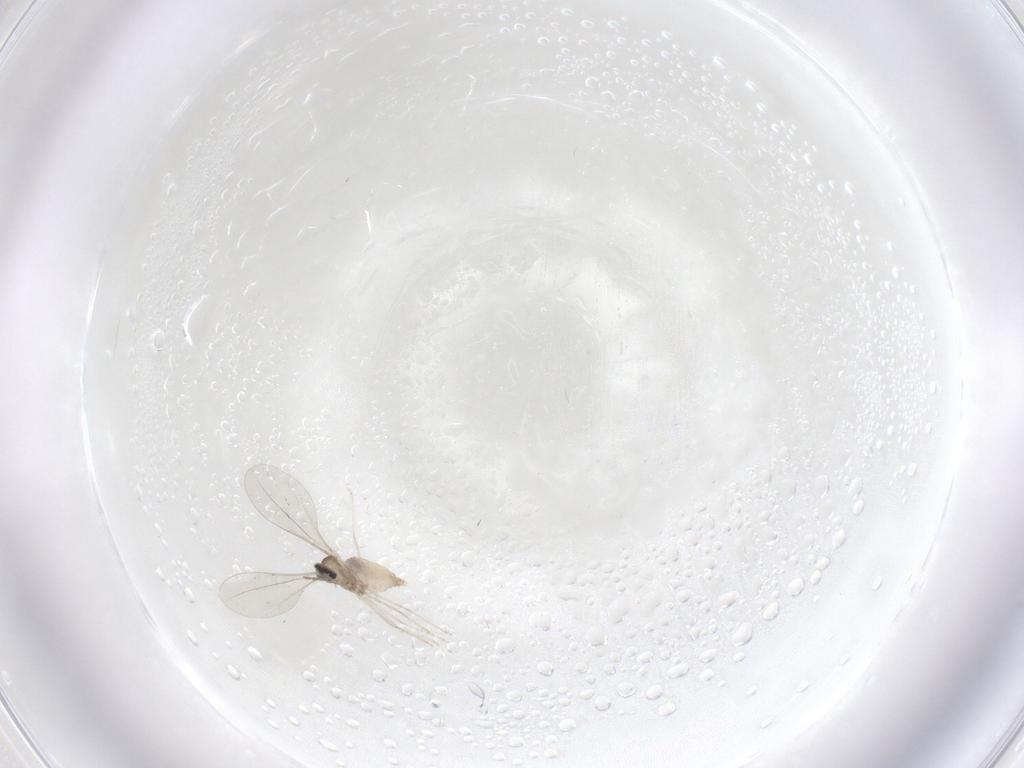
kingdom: Animalia
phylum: Arthropoda
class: Insecta
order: Diptera
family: Cecidomyiidae
